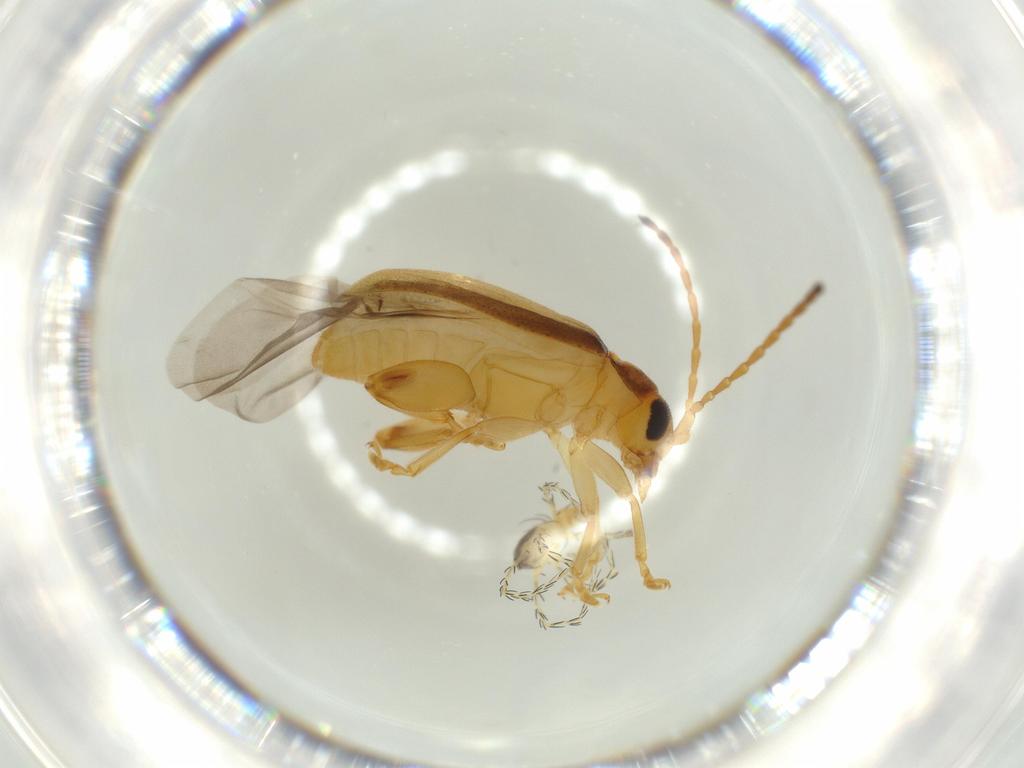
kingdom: Animalia
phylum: Arthropoda
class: Insecta
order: Coleoptera
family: Chrysomelidae
